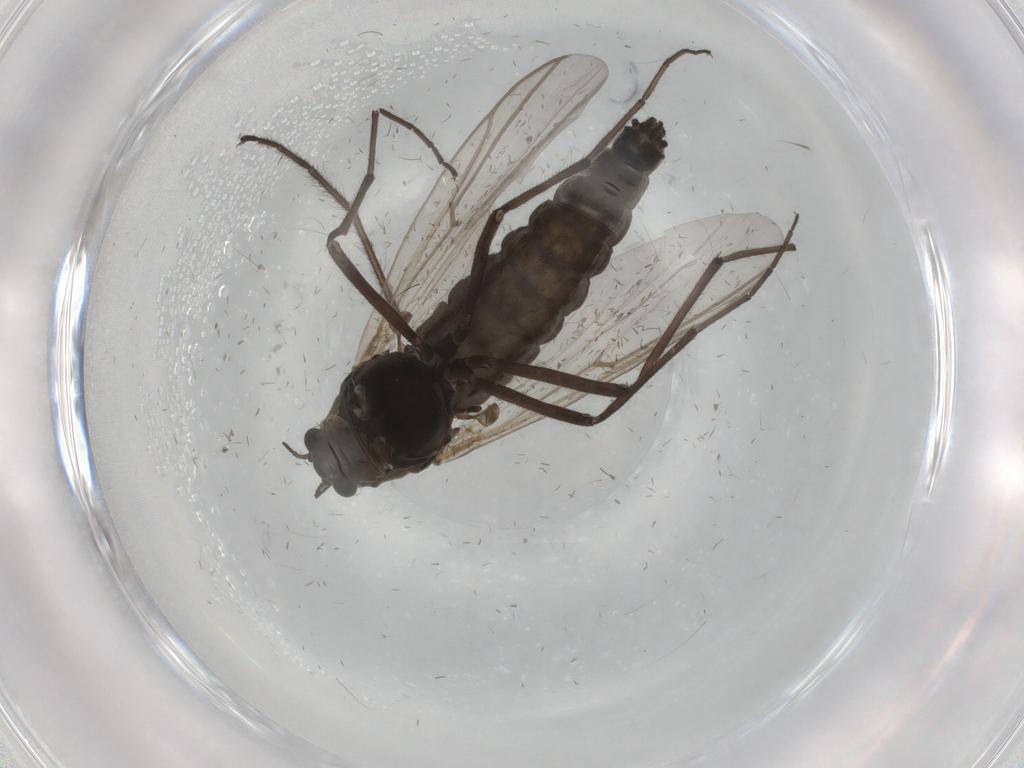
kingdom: Animalia
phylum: Arthropoda
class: Insecta
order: Diptera
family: Chironomidae
